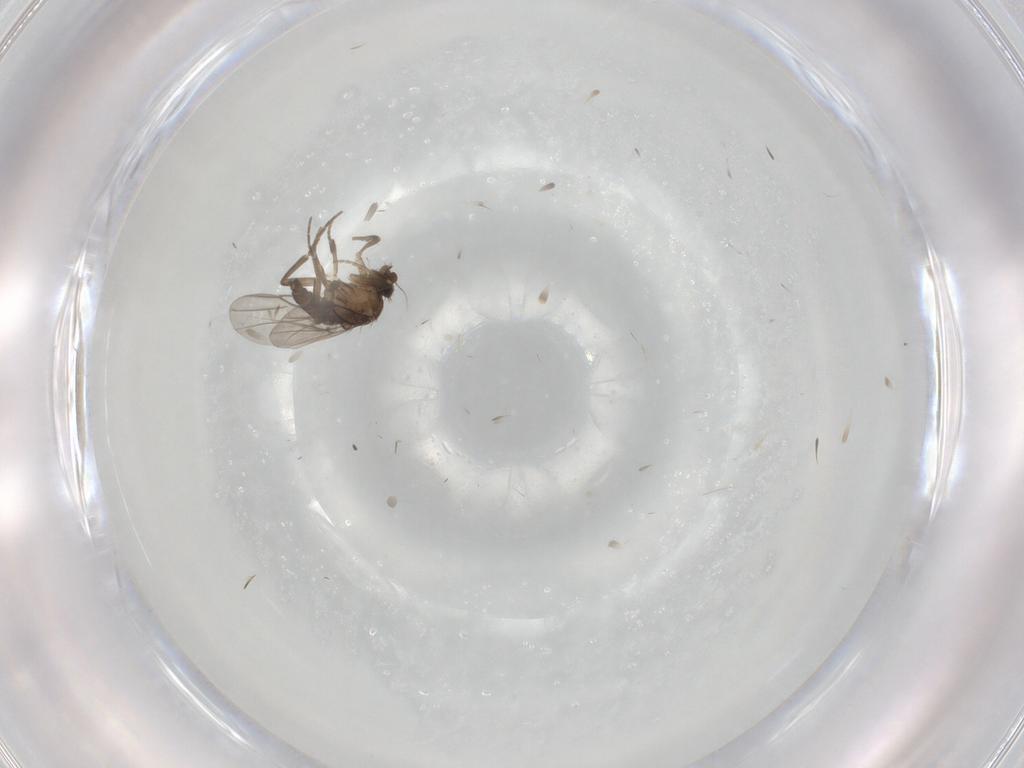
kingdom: Animalia
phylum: Arthropoda
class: Insecta
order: Diptera
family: Phoridae
